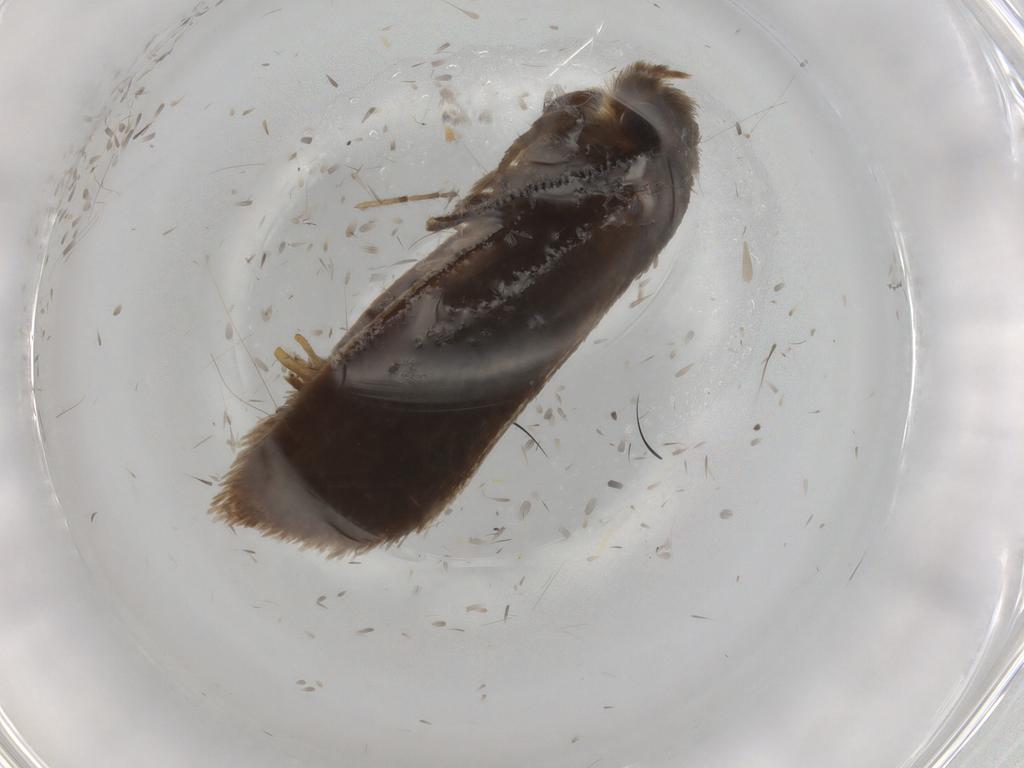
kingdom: Animalia
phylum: Arthropoda
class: Insecta
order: Lepidoptera
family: Tineidae
